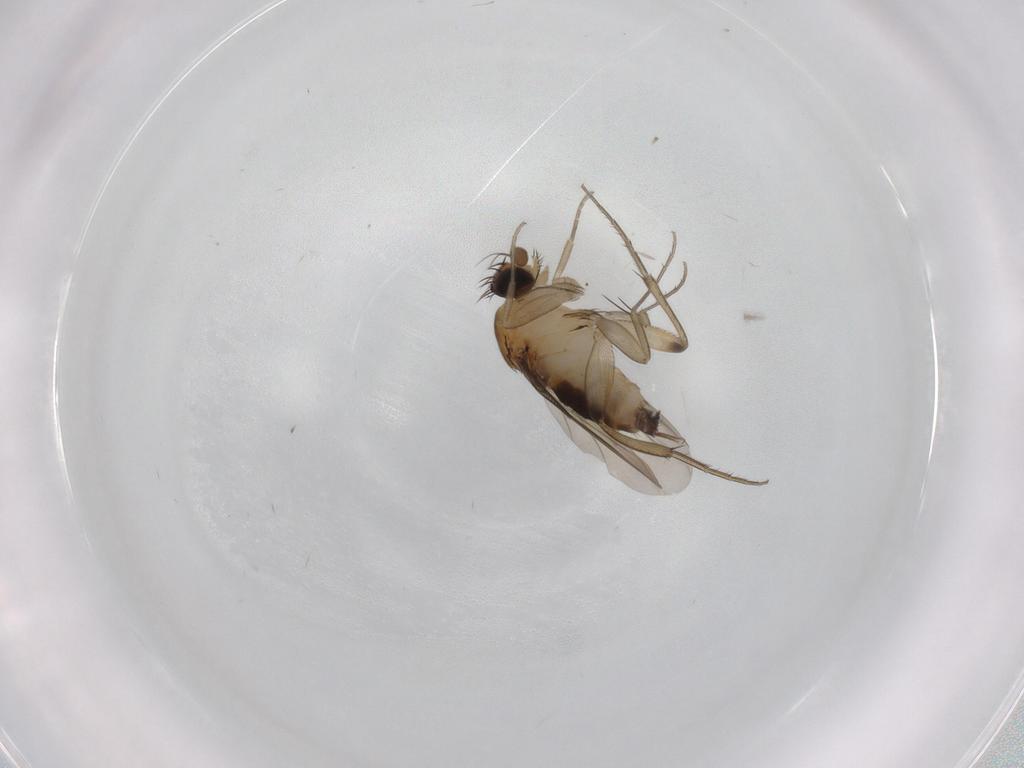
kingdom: Animalia
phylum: Arthropoda
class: Insecta
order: Diptera
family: Phoridae
